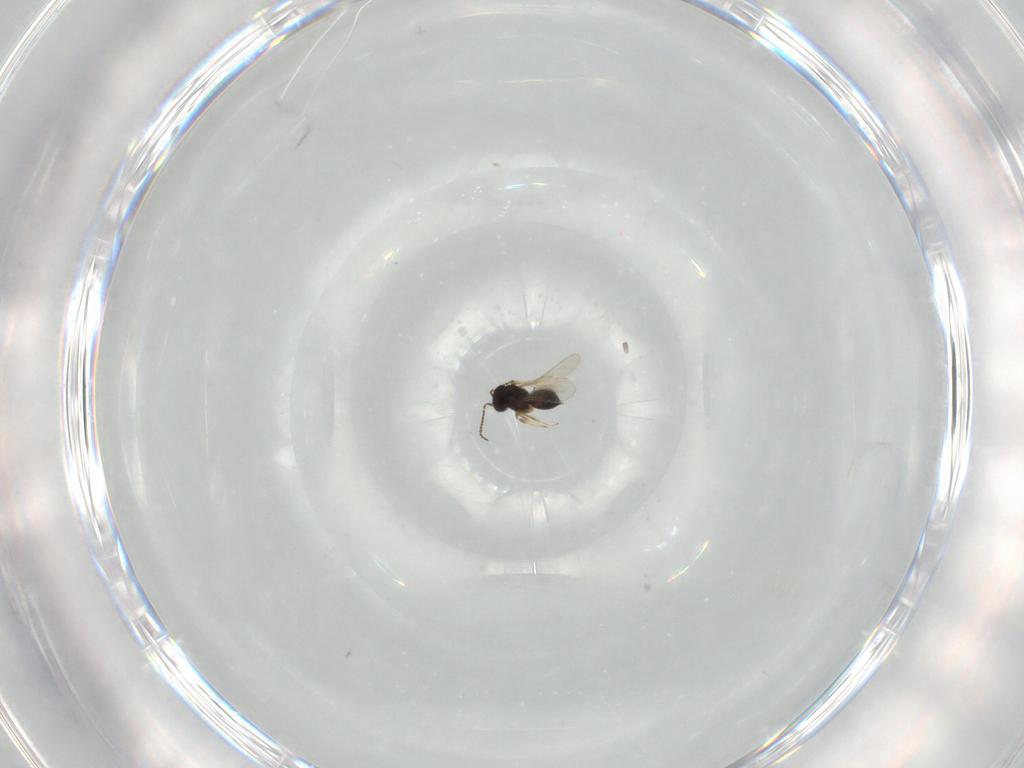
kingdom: Animalia
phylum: Arthropoda
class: Insecta
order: Hymenoptera
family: Scelionidae
